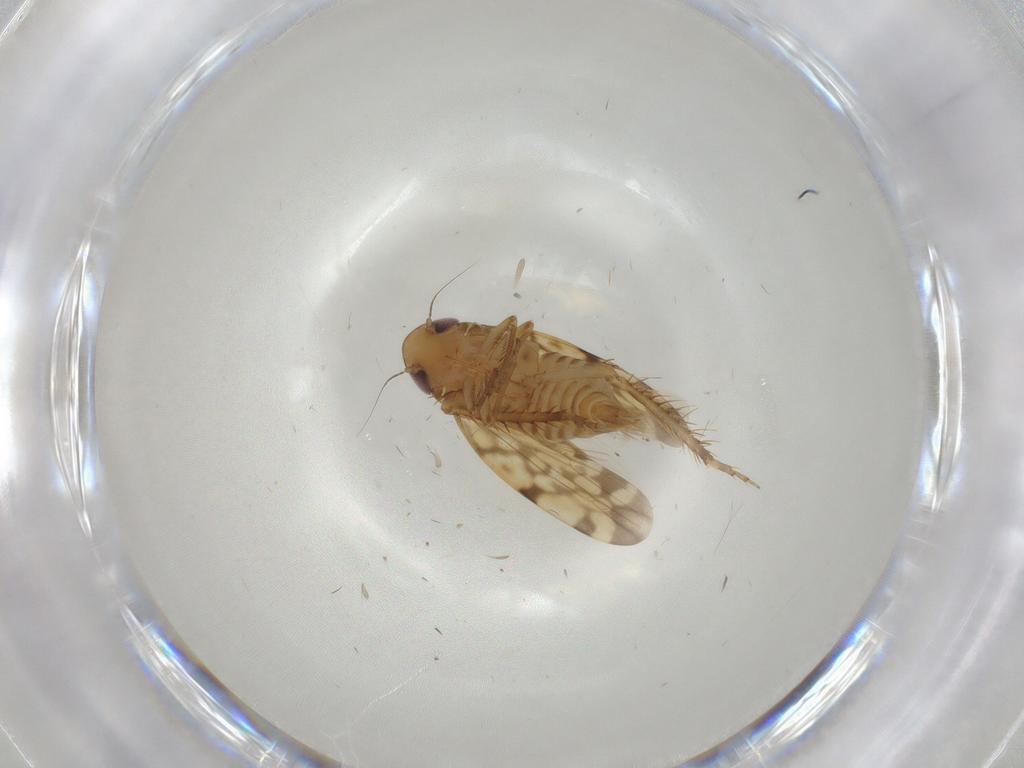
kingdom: Animalia
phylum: Arthropoda
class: Insecta
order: Hemiptera
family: Cicadellidae
